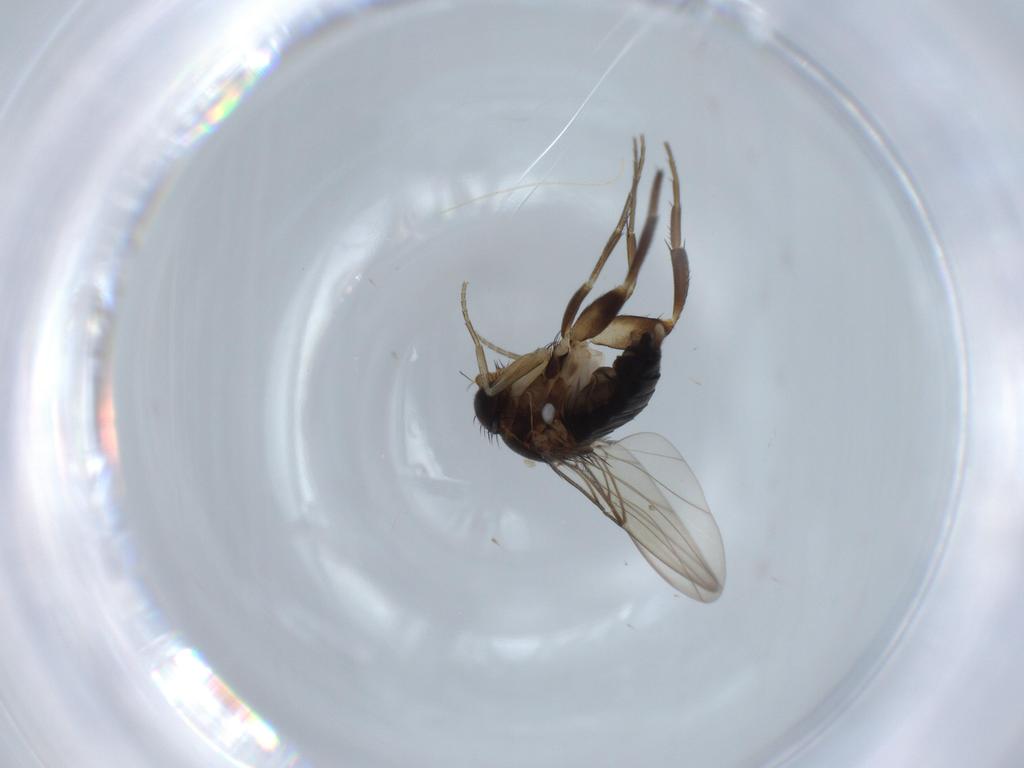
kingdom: Animalia
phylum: Arthropoda
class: Insecta
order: Diptera
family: Phoridae
